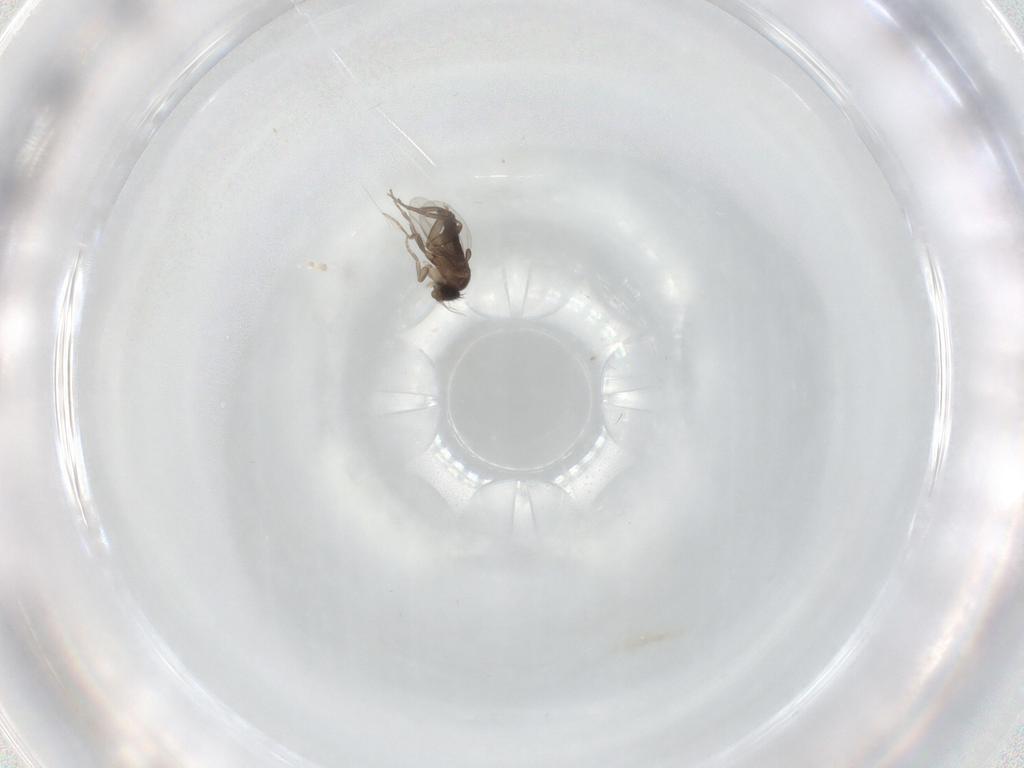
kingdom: Animalia
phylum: Arthropoda
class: Insecta
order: Diptera
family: Phoridae
